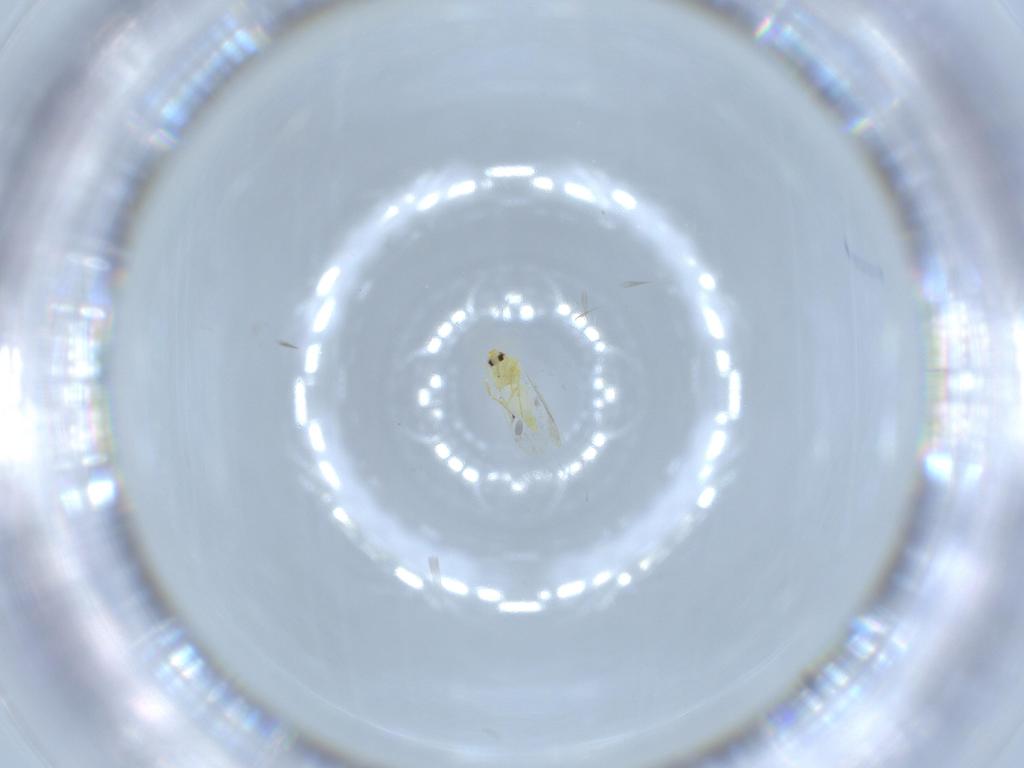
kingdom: Animalia
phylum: Arthropoda
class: Insecta
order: Hemiptera
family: Aleyrodidae
